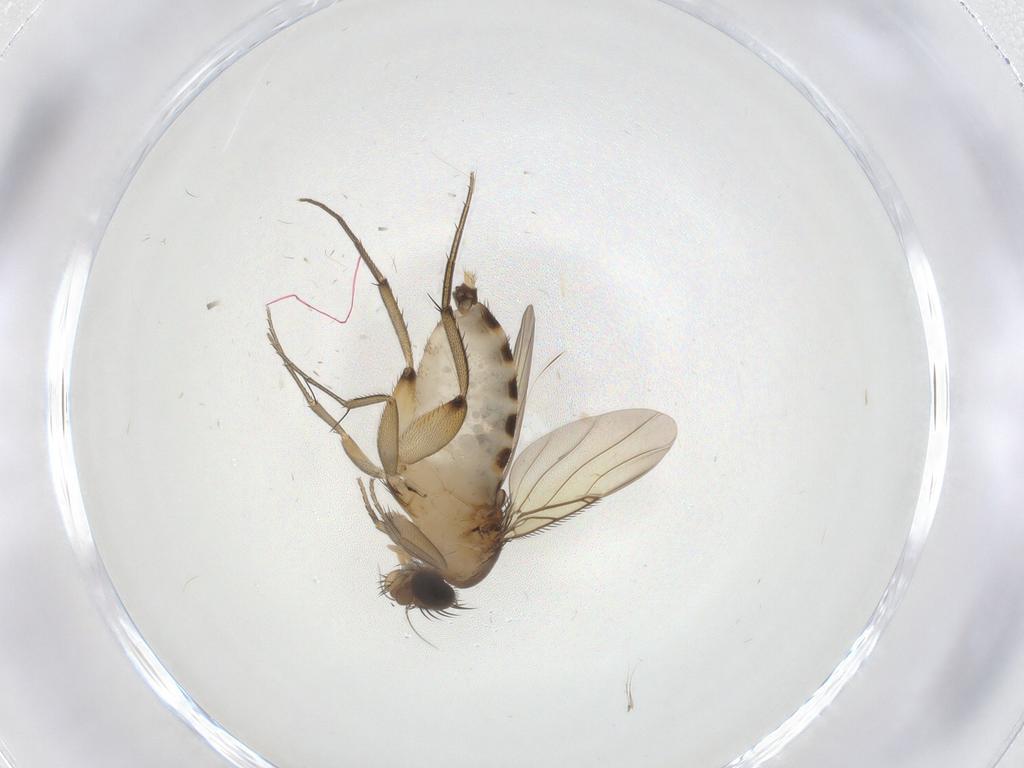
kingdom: Animalia
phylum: Arthropoda
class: Insecta
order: Diptera
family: Phoridae
